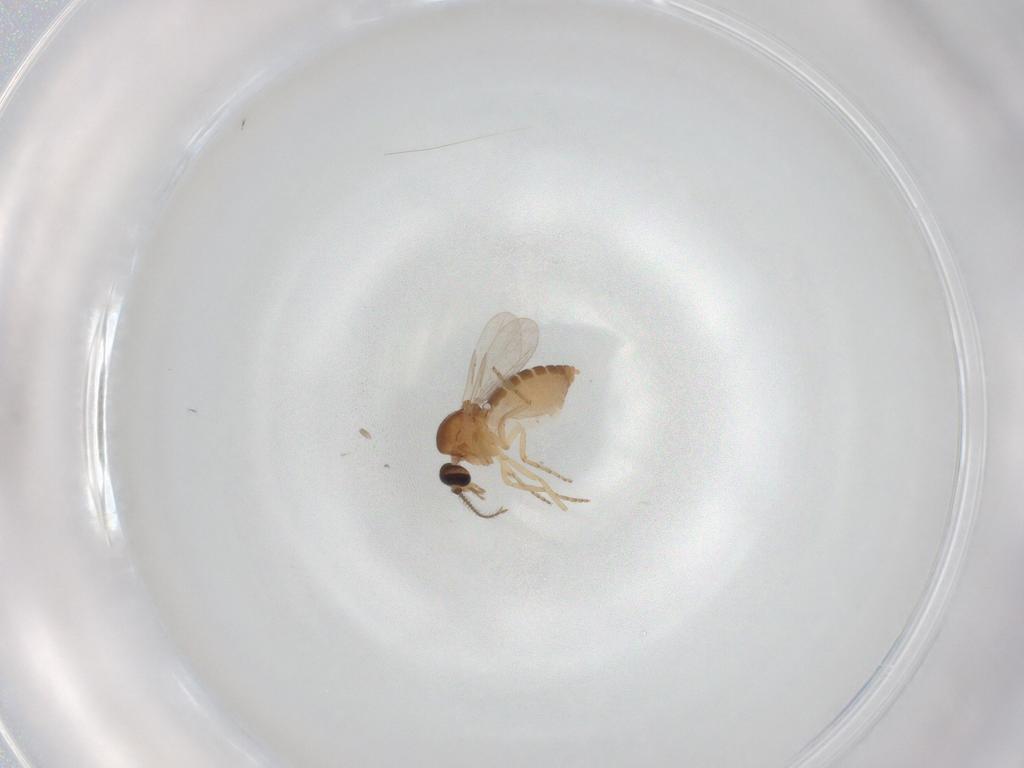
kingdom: Animalia
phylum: Arthropoda
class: Insecta
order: Diptera
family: Ceratopogonidae
